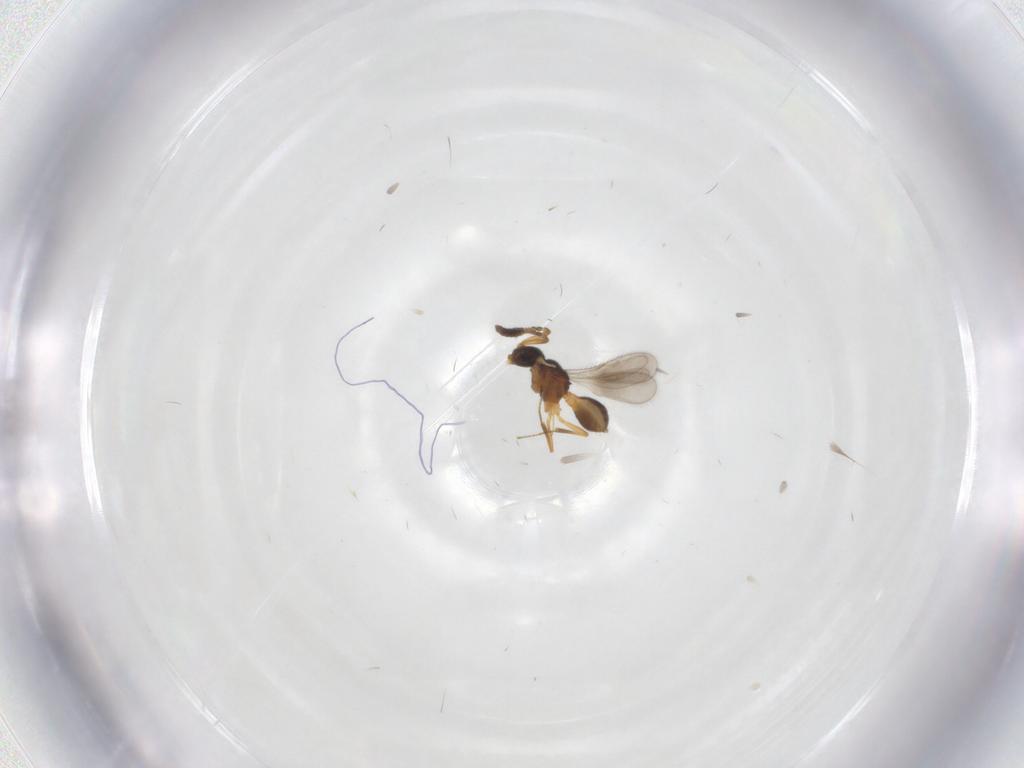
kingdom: Animalia
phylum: Arthropoda
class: Insecta
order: Hymenoptera
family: Scelionidae
